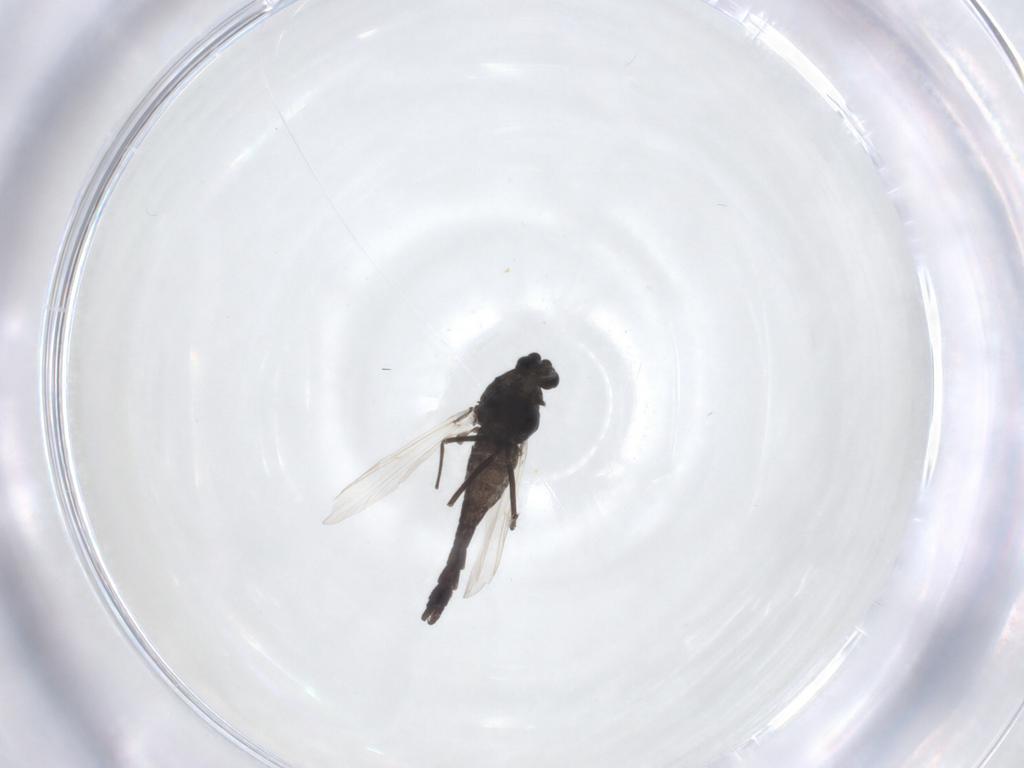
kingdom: Animalia
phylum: Arthropoda
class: Insecta
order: Diptera
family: Chironomidae
